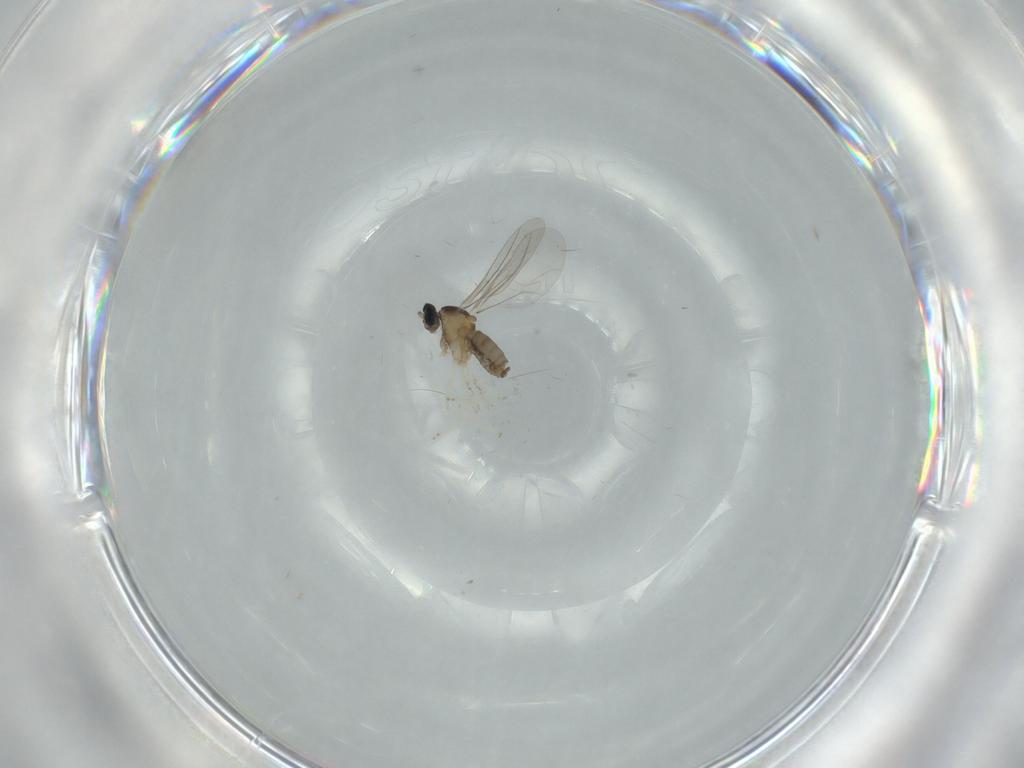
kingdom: Animalia
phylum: Arthropoda
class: Insecta
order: Diptera
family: Cecidomyiidae
